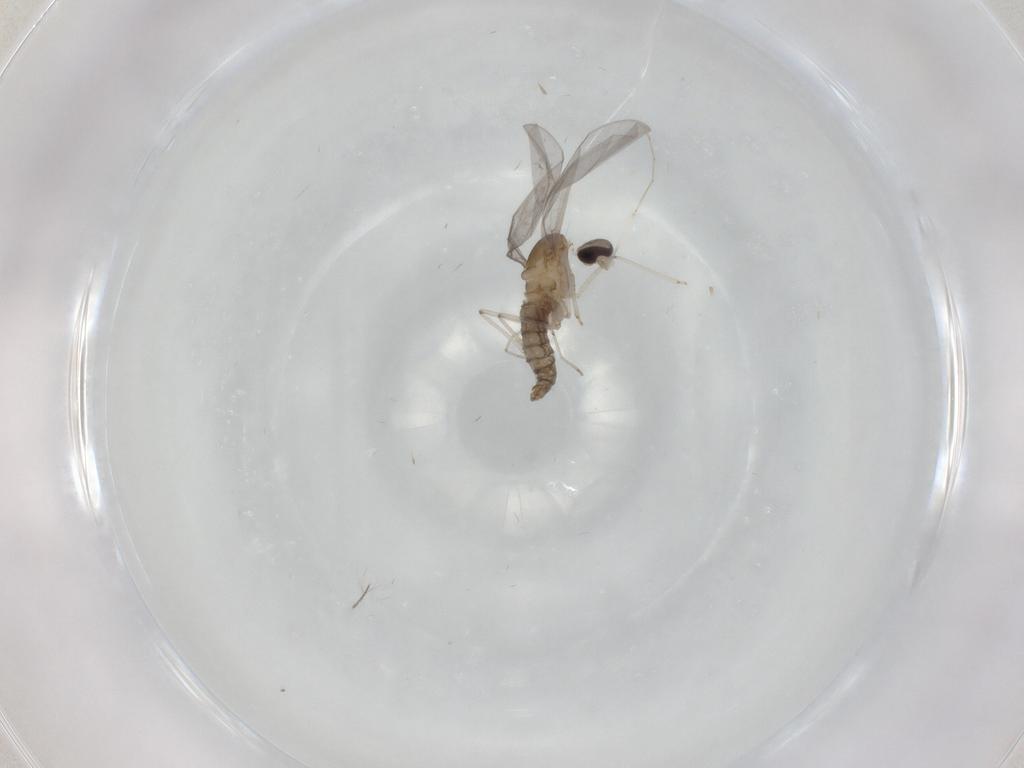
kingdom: Animalia
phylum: Arthropoda
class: Insecta
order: Diptera
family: Cecidomyiidae
